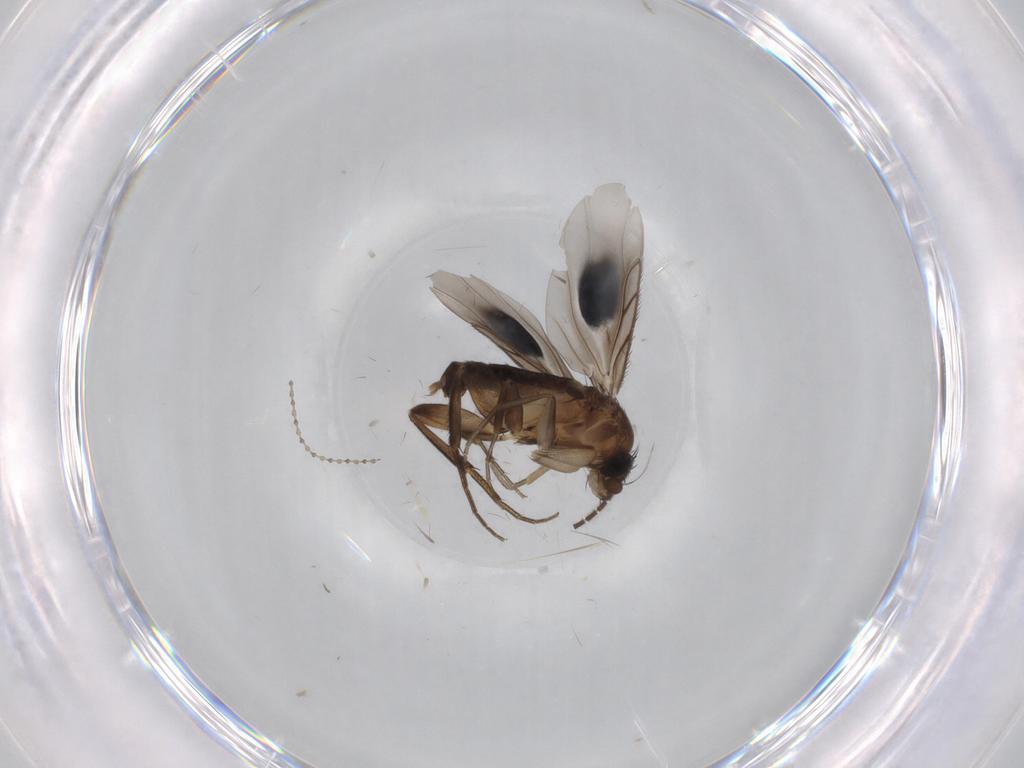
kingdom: Animalia
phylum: Arthropoda
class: Insecta
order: Diptera
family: Phoridae
